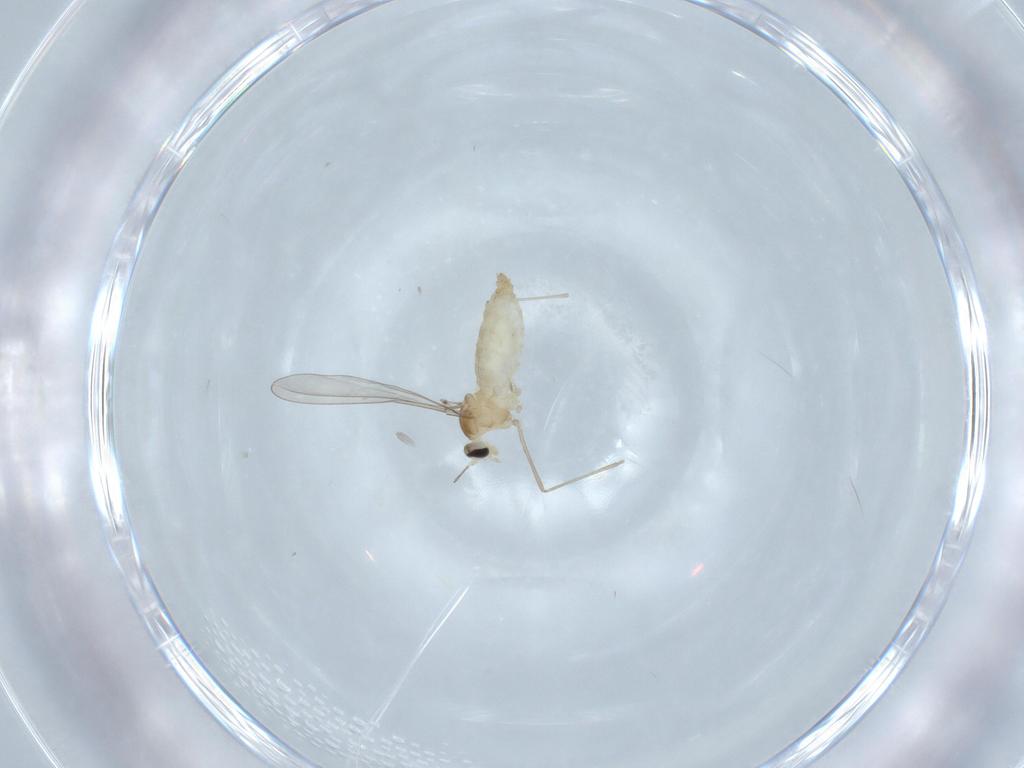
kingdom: Animalia
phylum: Arthropoda
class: Insecta
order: Diptera
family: Cecidomyiidae
